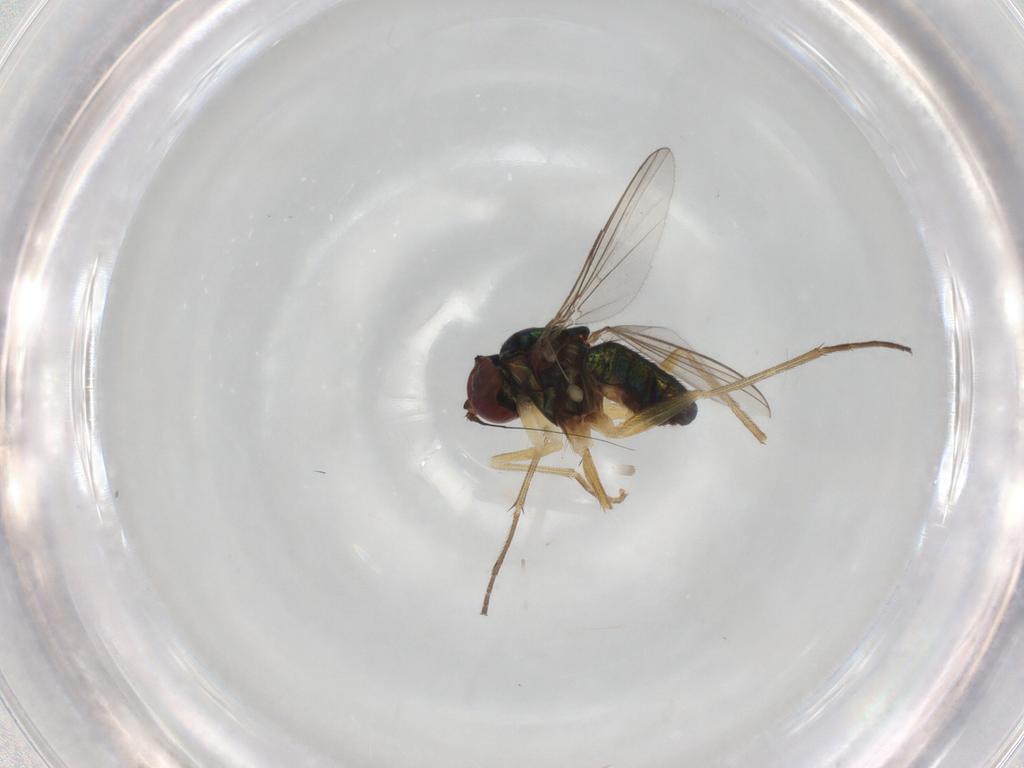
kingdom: Animalia
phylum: Arthropoda
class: Insecta
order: Diptera
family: Dolichopodidae
